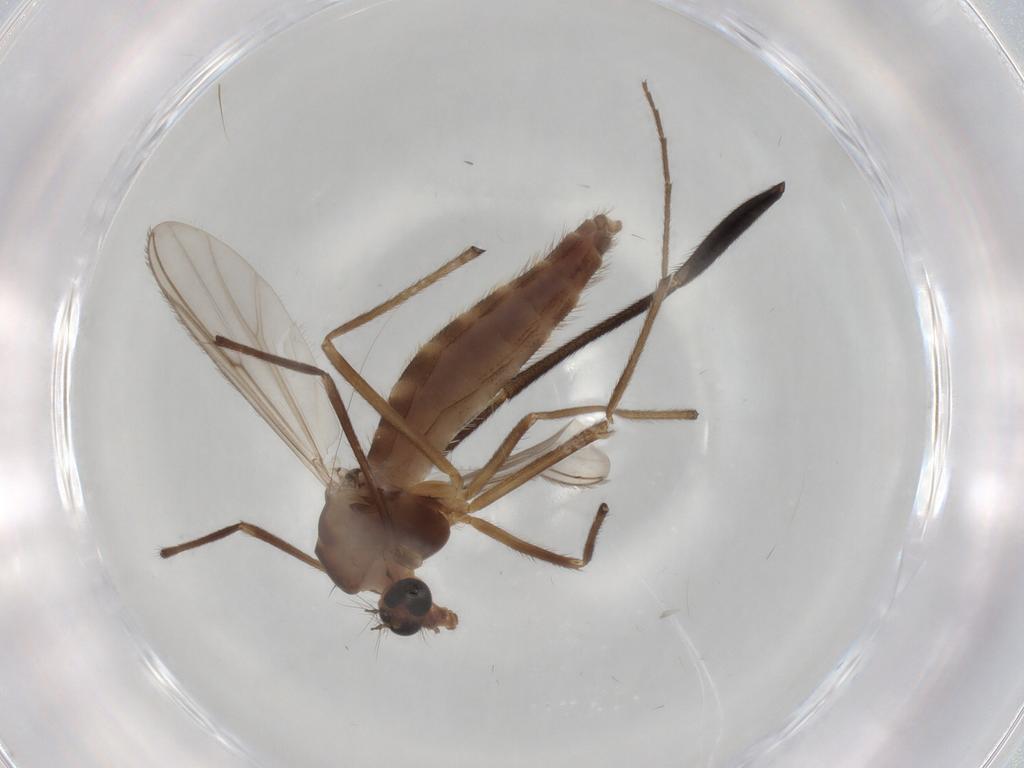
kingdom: Animalia
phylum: Arthropoda
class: Insecta
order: Diptera
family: Chironomidae
